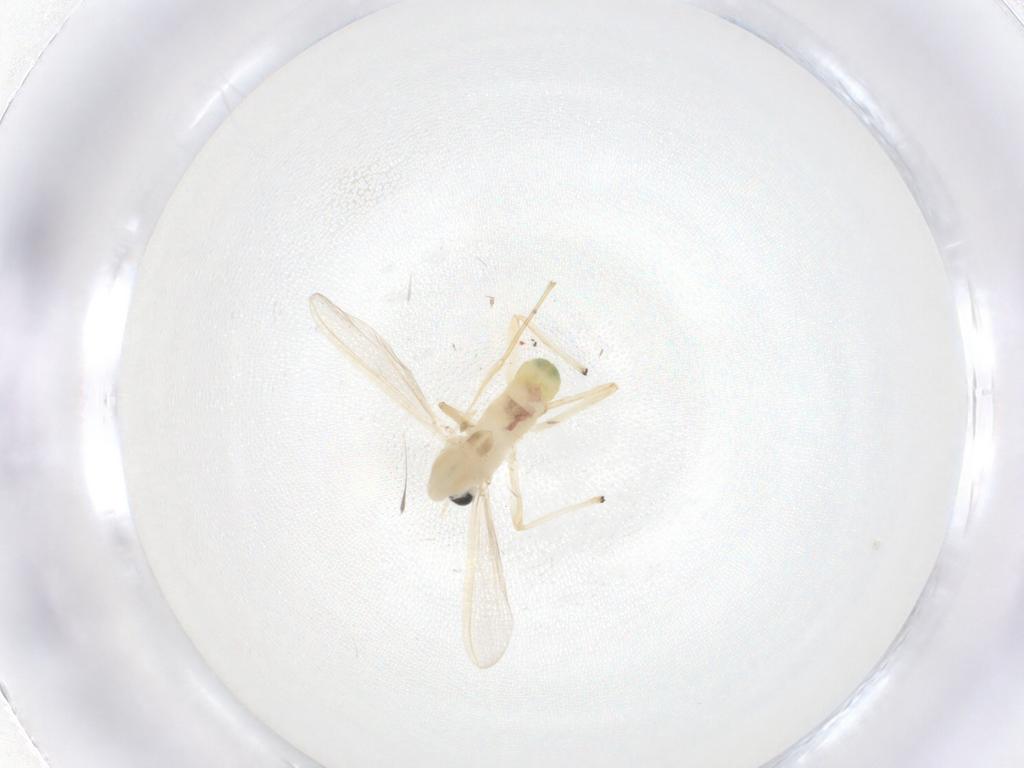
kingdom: Animalia
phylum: Arthropoda
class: Insecta
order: Diptera
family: Chironomidae
